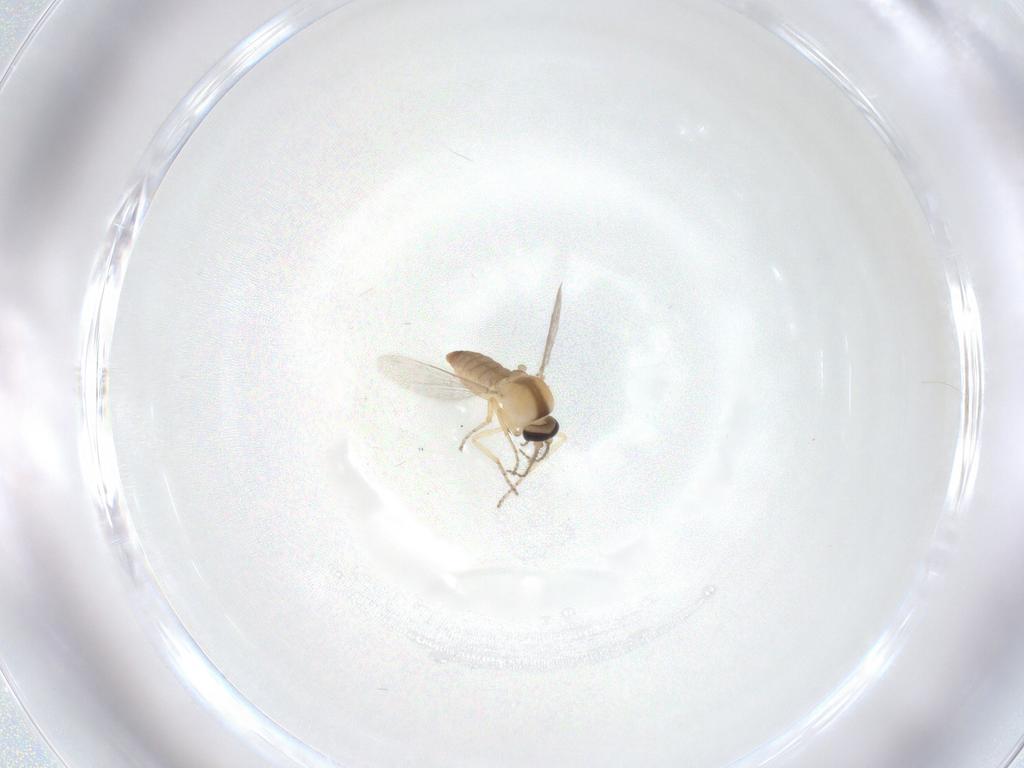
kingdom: Animalia
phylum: Arthropoda
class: Insecta
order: Diptera
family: Ceratopogonidae
